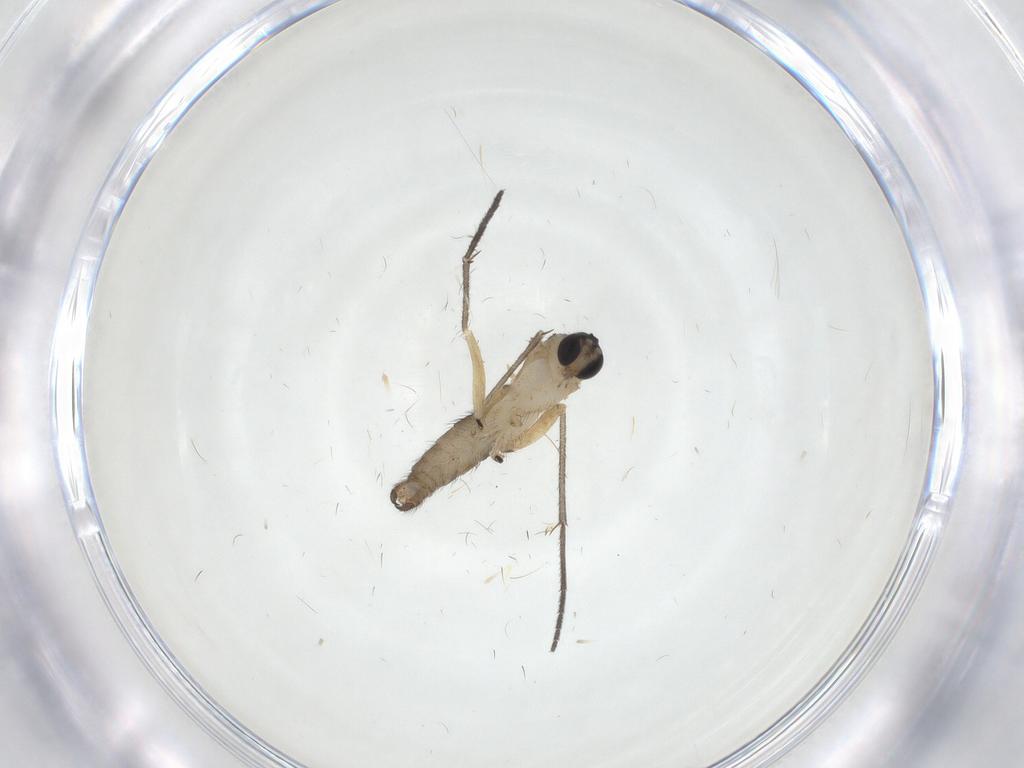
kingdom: Animalia
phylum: Arthropoda
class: Insecta
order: Diptera
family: Sciaridae
